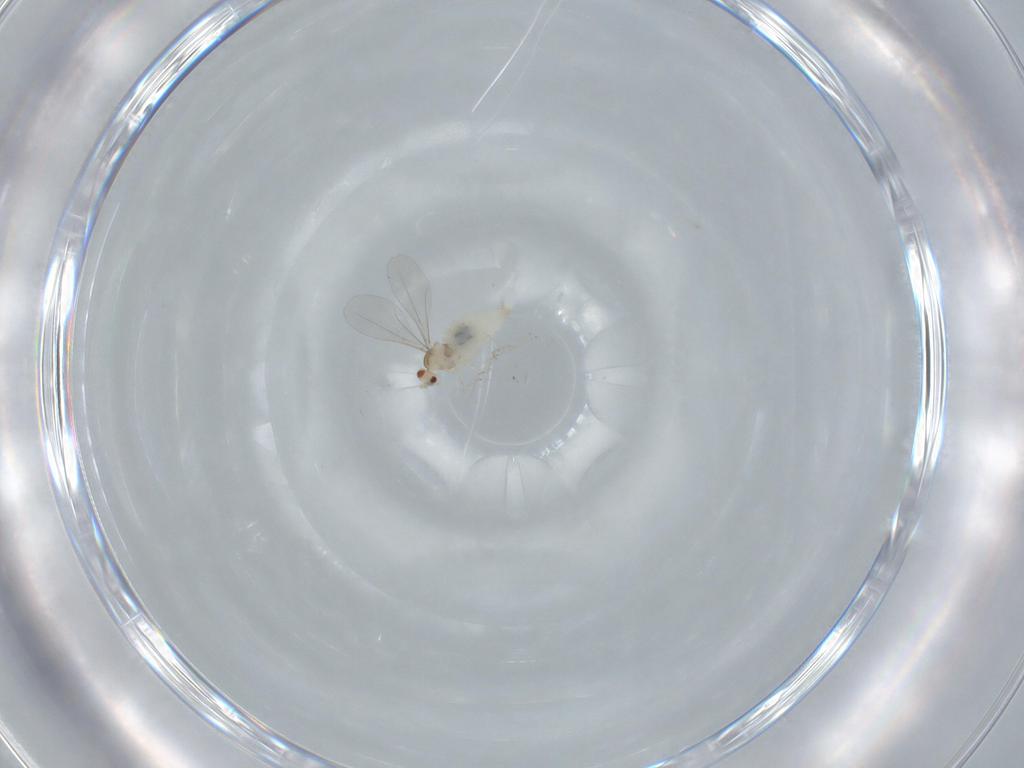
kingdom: Animalia
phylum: Arthropoda
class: Insecta
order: Diptera
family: Cecidomyiidae
